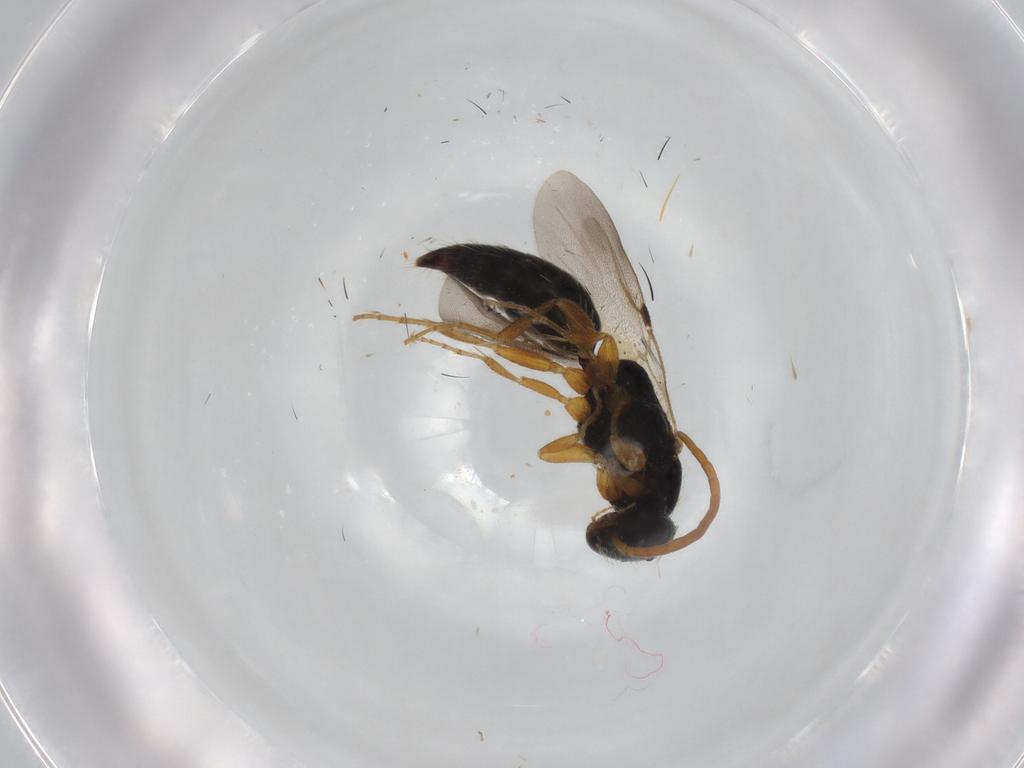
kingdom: Animalia
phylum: Arthropoda
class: Insecta
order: Hymenoptera
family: Bethylidae
